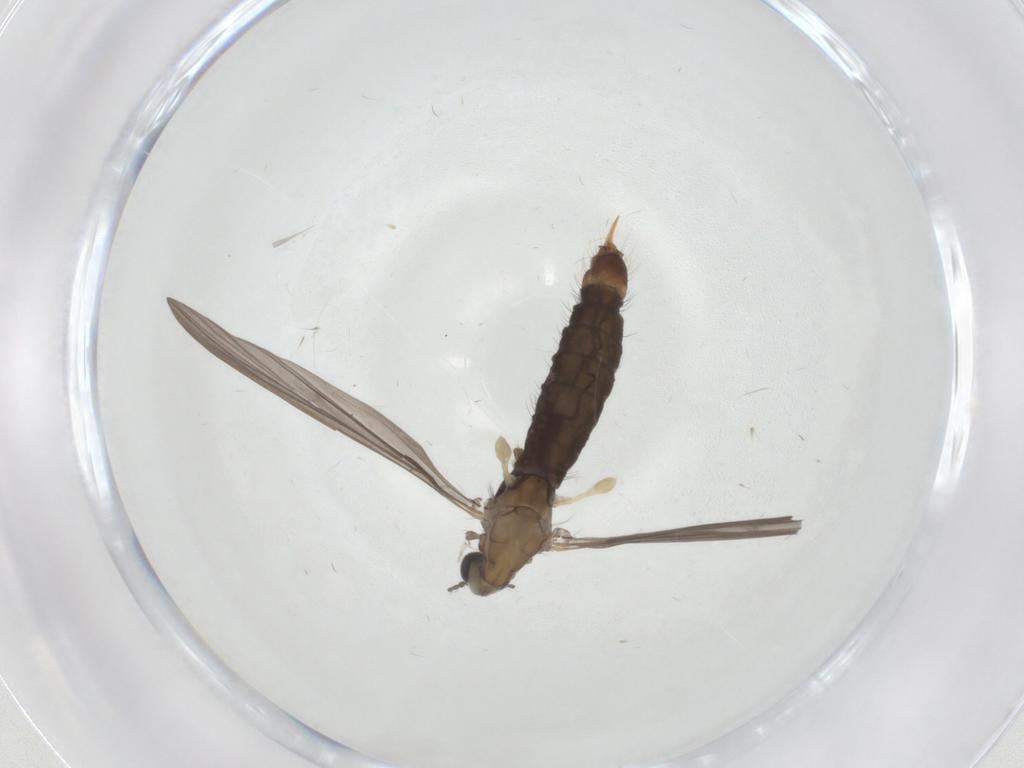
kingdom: Animalia
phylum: Arthropoda
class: Insecta
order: Diptera
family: Limoniidae
